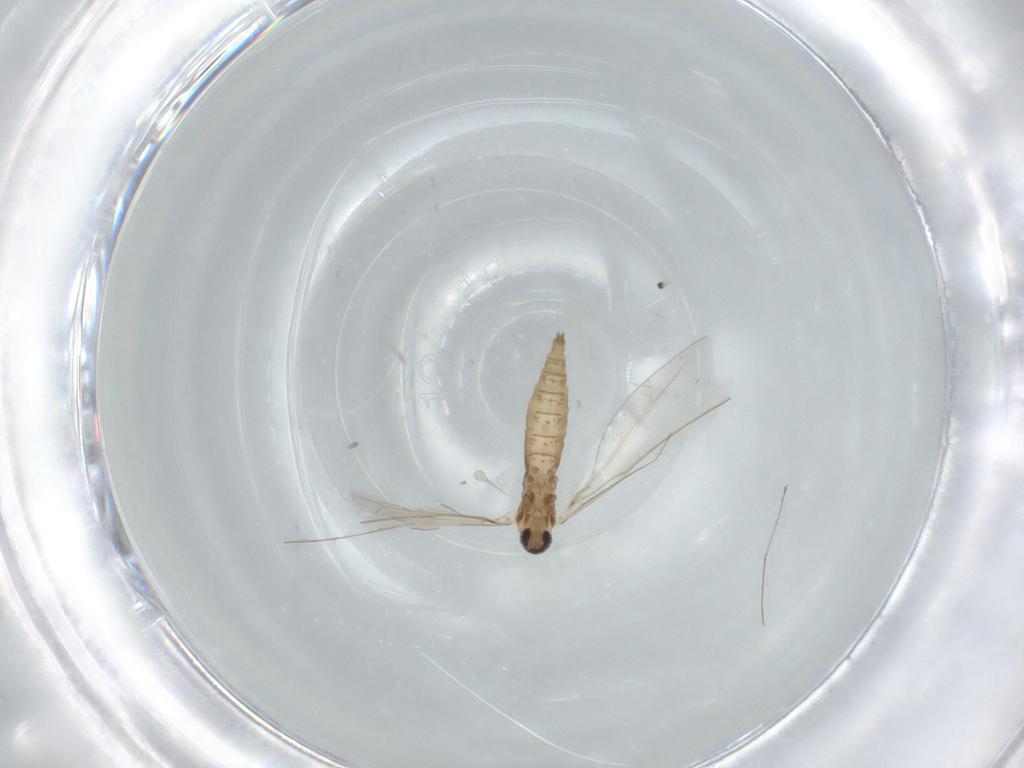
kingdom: Animalia
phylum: Arthropoda
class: Insecta
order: Diptera
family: Cecidomyiidae
